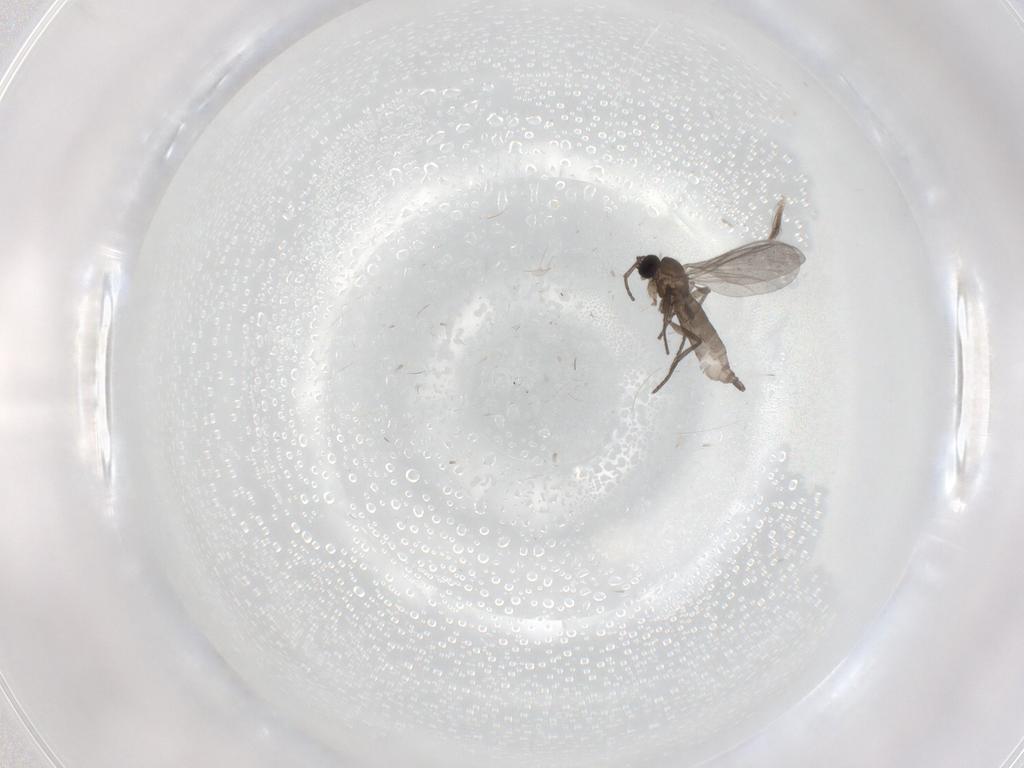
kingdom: Animalia
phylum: Arthropoda
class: Insecta
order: Diptera
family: Sciaridae
